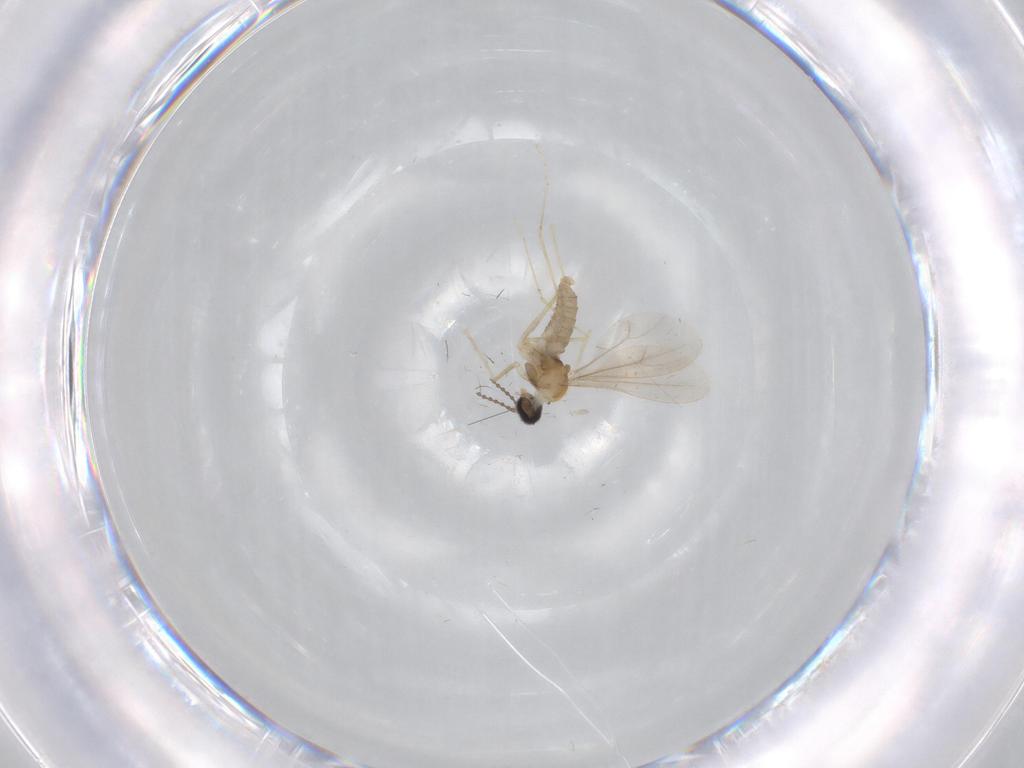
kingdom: Animalia
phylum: Arthropoda
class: Insecta
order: Diptera
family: Cecidomyiidae
